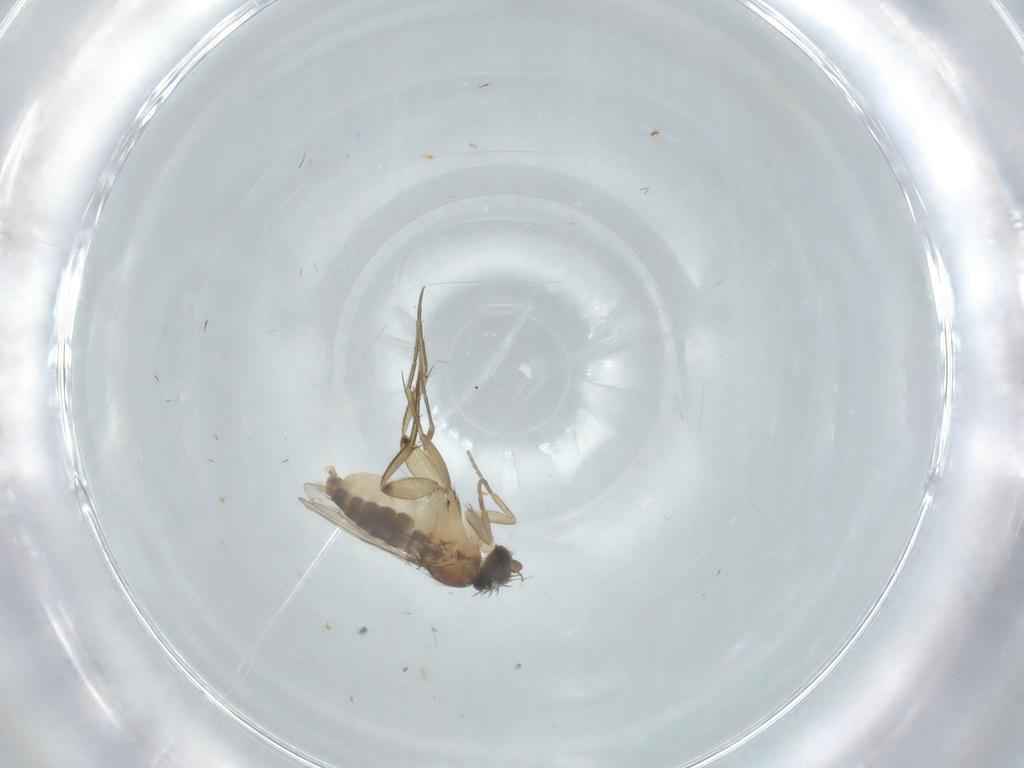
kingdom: Animalia
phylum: Arthropoda
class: Insecta
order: Diptera
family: Phoridae
